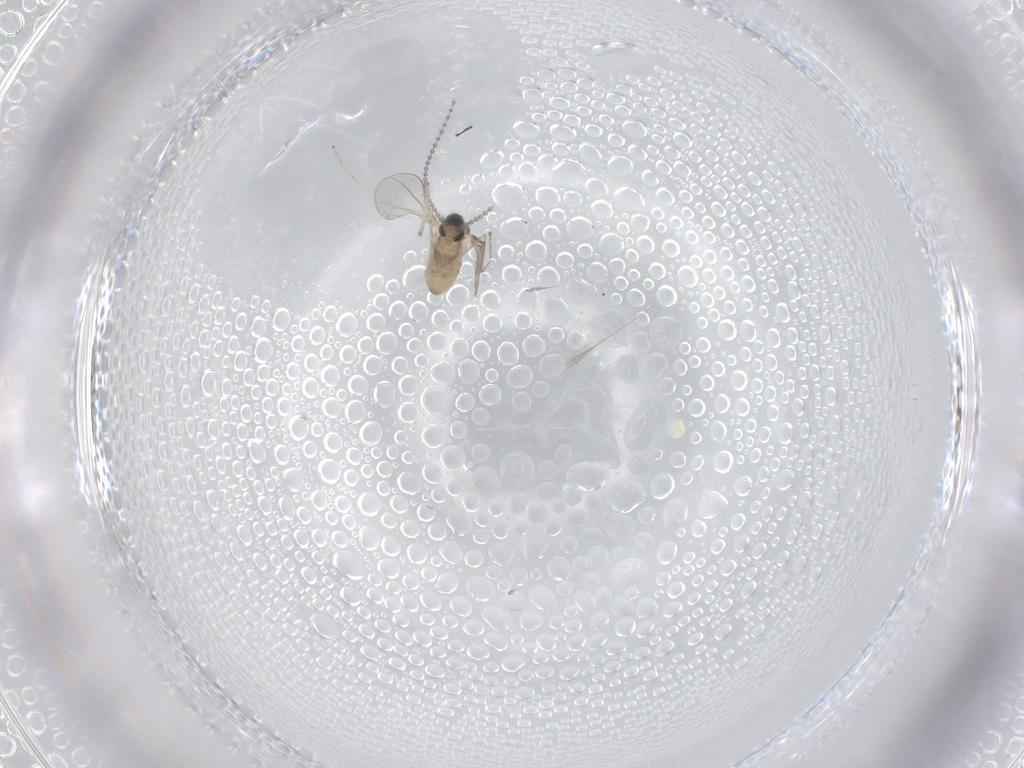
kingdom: Animalia
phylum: Arthropoda
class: Insecta
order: Diptera
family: Cecidomyiidae
